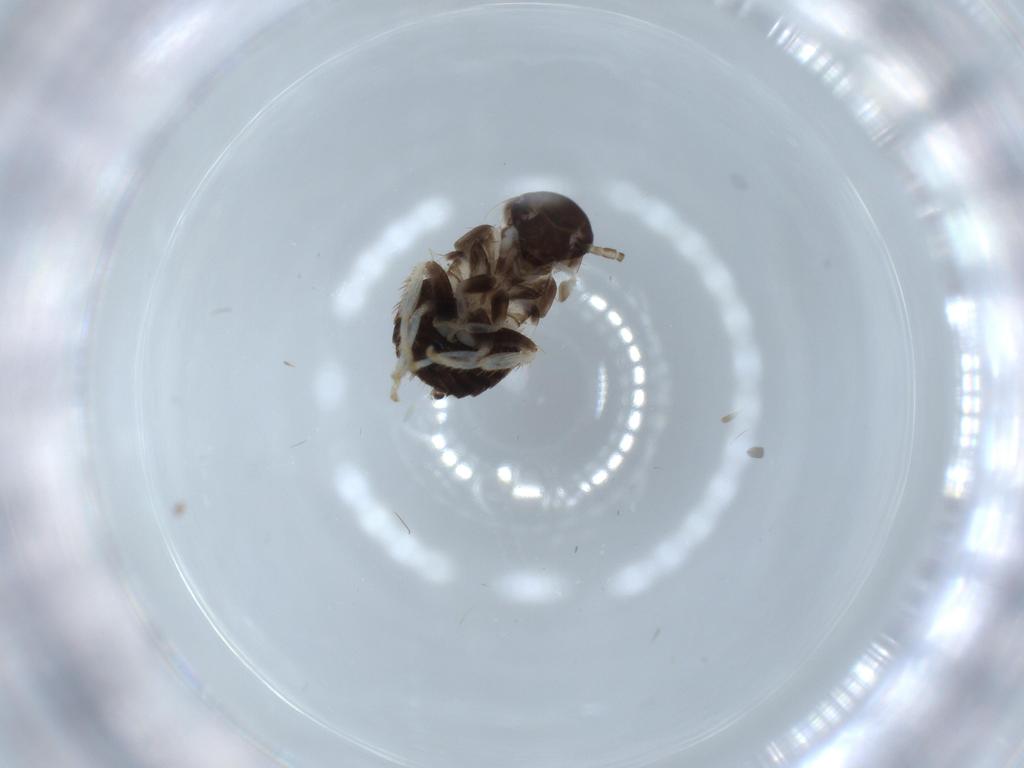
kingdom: Animalia
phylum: Arthropoda
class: Insecta
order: Blattodea
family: Ectobiidae
